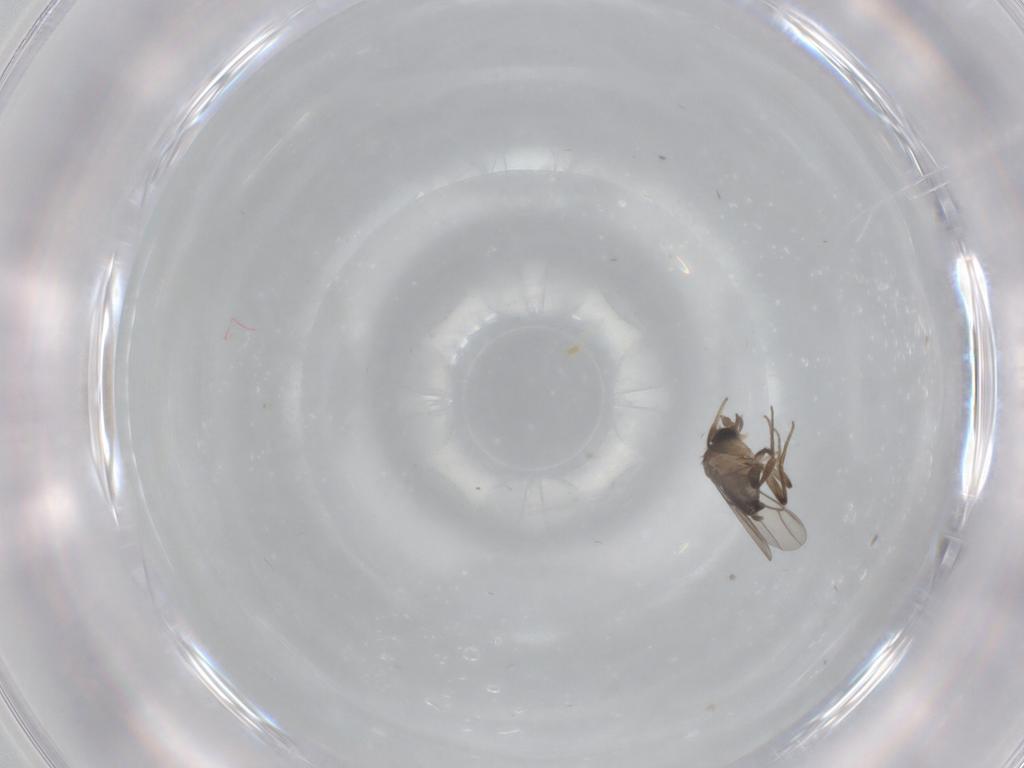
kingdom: Animalia
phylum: Arthropoda
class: Insecta
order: Diptera
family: Phoridae
